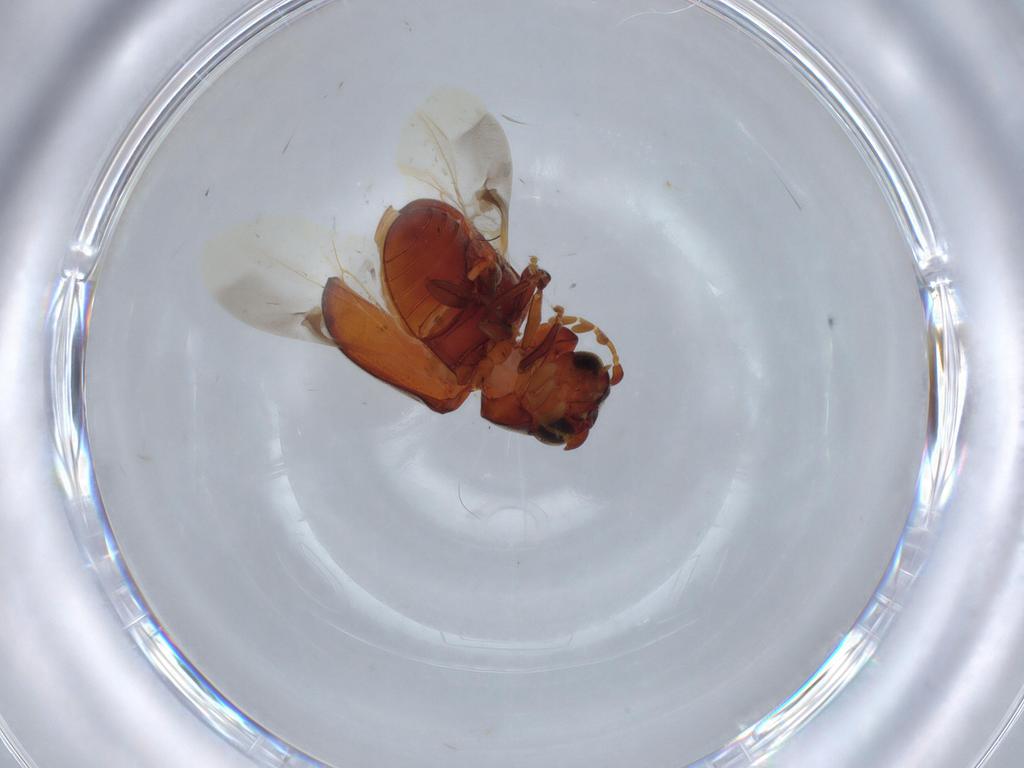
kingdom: Animalia
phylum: Arthropoda
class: Insecta
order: Coleoptera
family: Ptinidae
